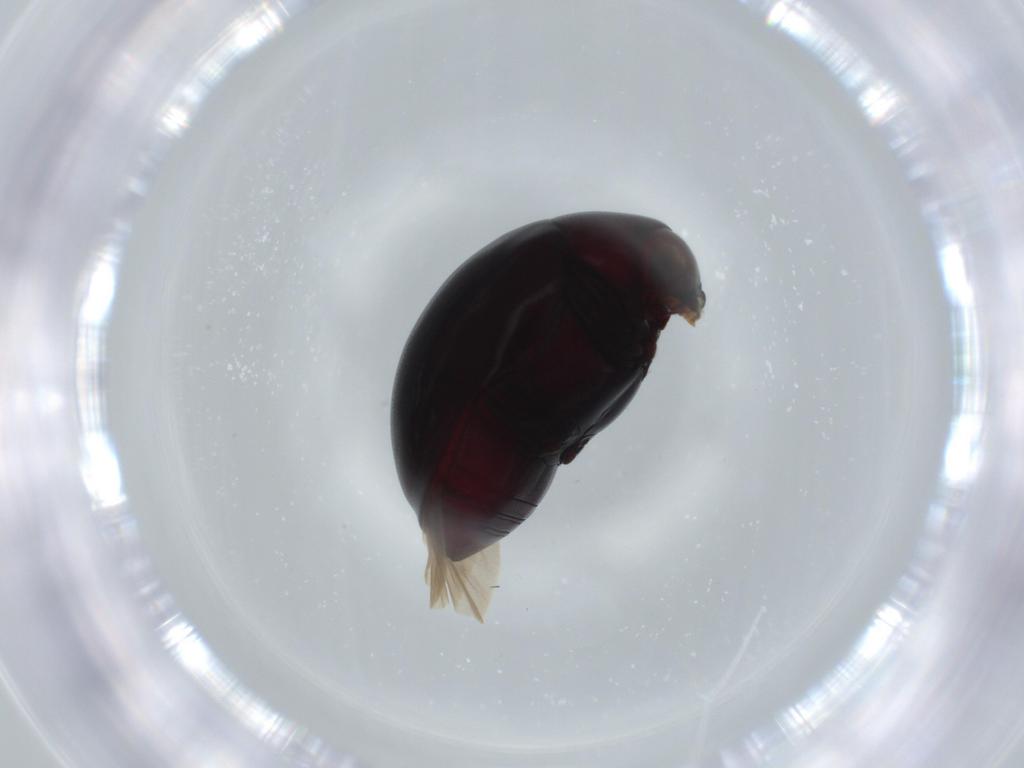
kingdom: Animalia
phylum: Arthropoda
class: Insecta
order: Coleoptera
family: Ptinidae
